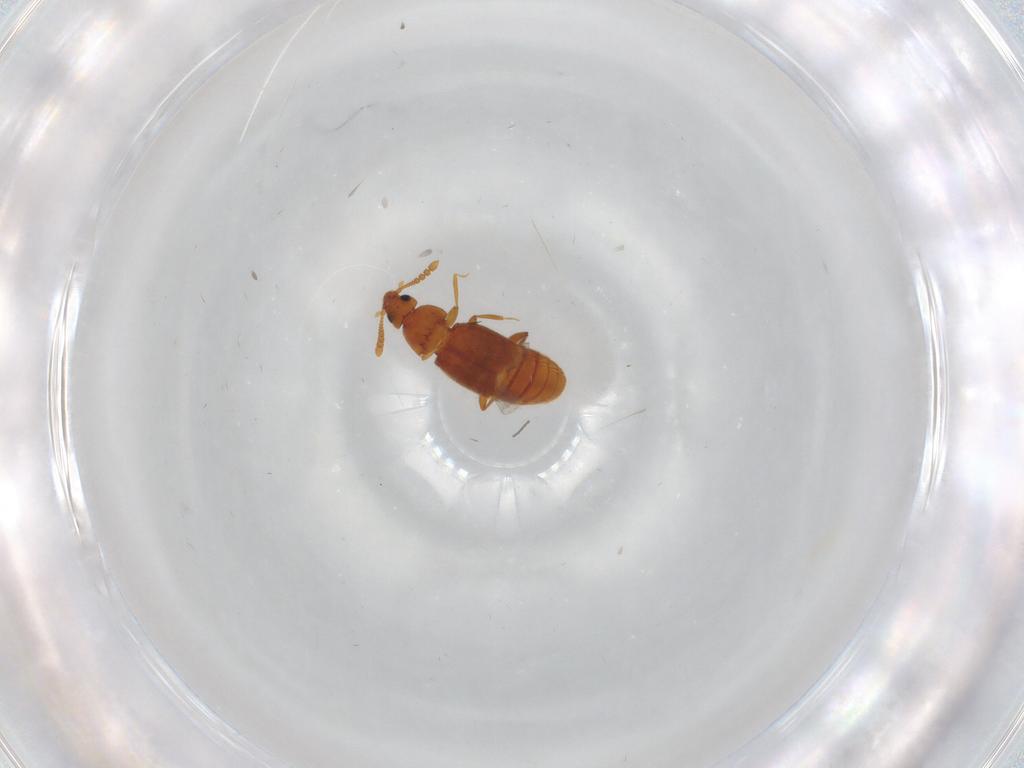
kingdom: Animalia
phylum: Arthropoda
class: Insecta
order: Coleoptera
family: Staphylinidae
